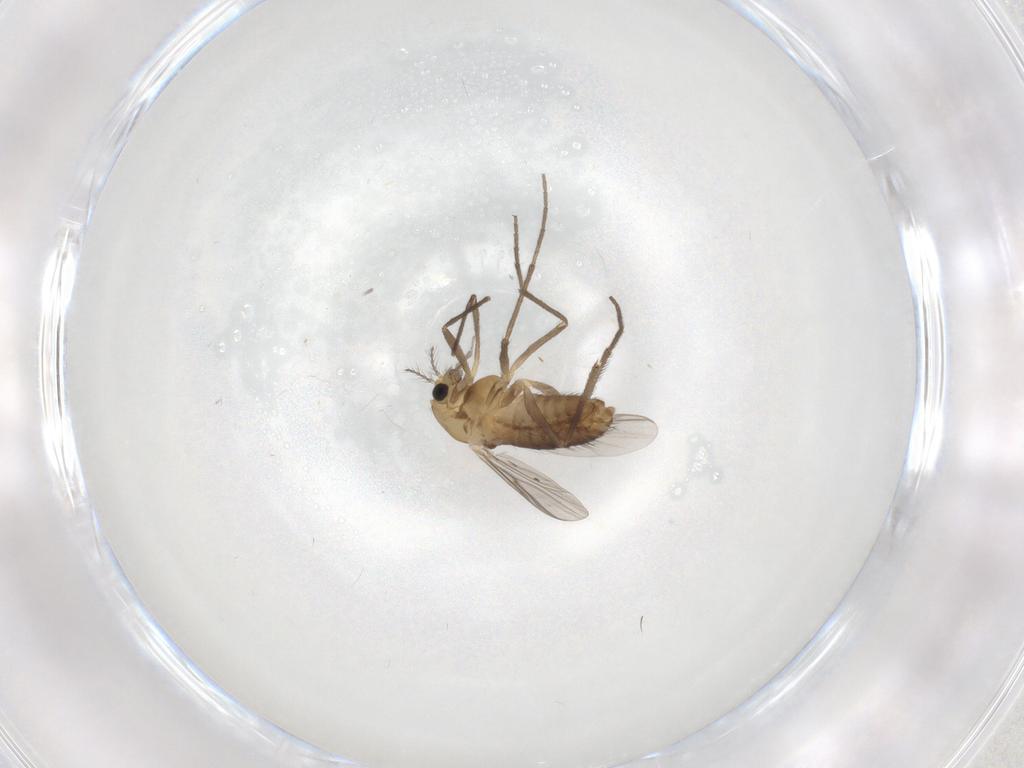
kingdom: Animalia
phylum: Arthropoda
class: Insecta
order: Diptera
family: Chironomidae
